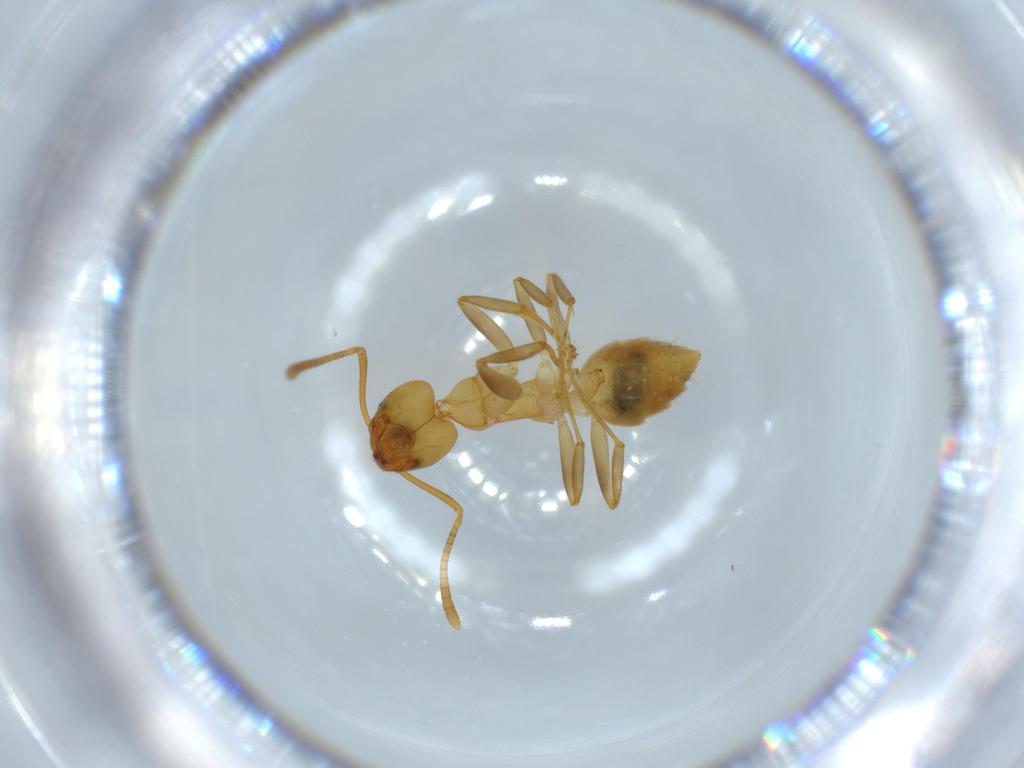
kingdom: Animalia
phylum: Arthropoda
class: Insecta
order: Hymenoptera
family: Formicidae
